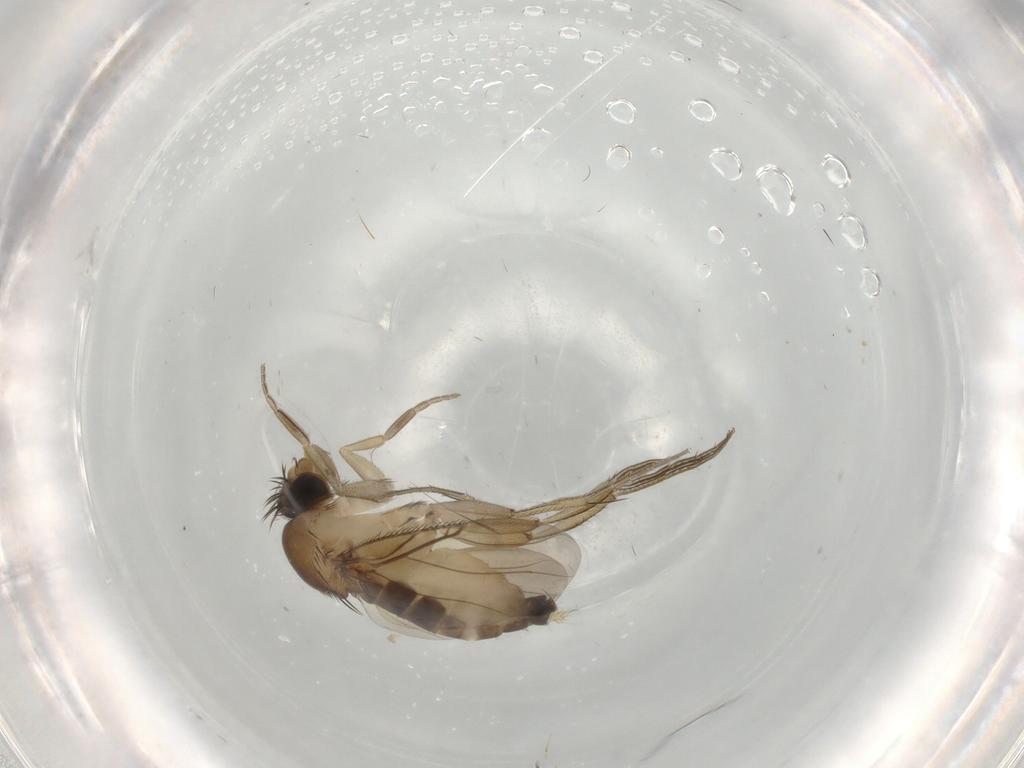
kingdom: Animalia
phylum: Arthropoda
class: Insecta
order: Diptera
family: Phoridae
